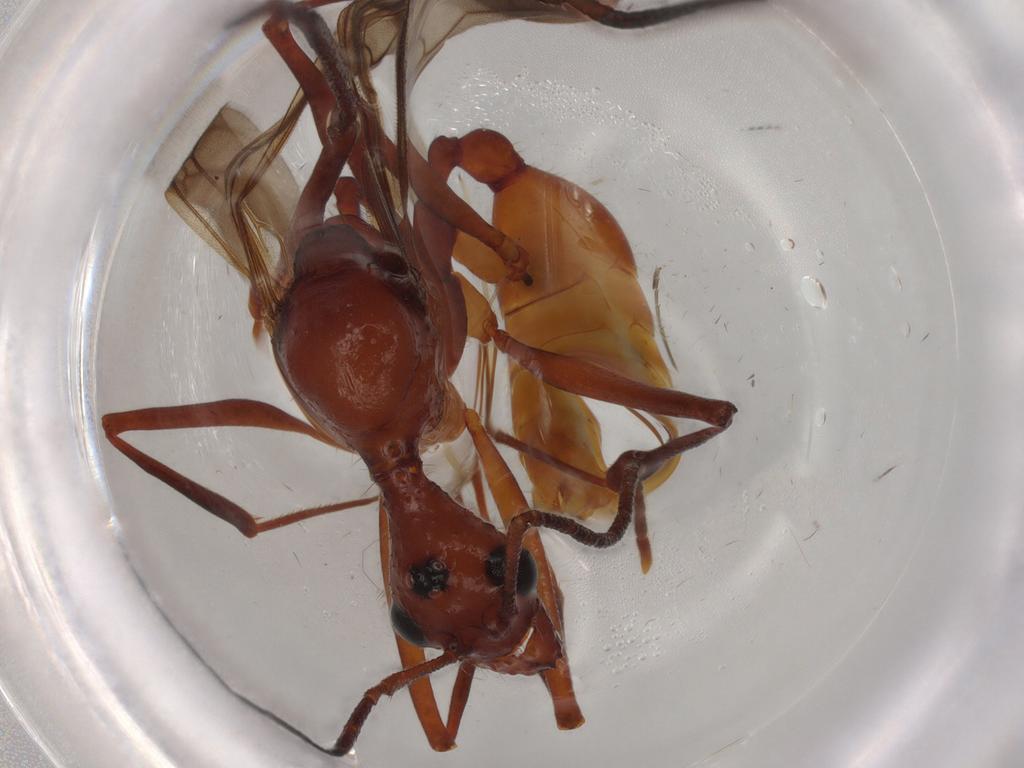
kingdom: Animalia
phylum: Arthropoda
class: Insecta
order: Hymenoptera
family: Formicidae
